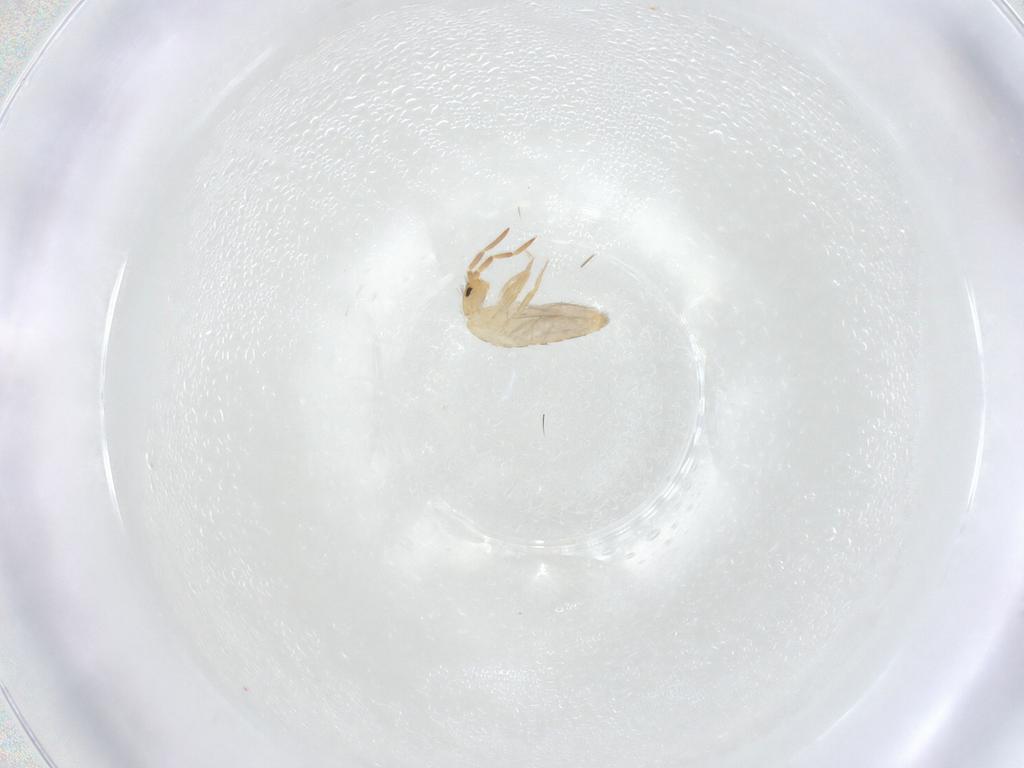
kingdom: Animalia
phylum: Arthropoda
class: Collembola
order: Entomobryomorpha
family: Entomobryidae
